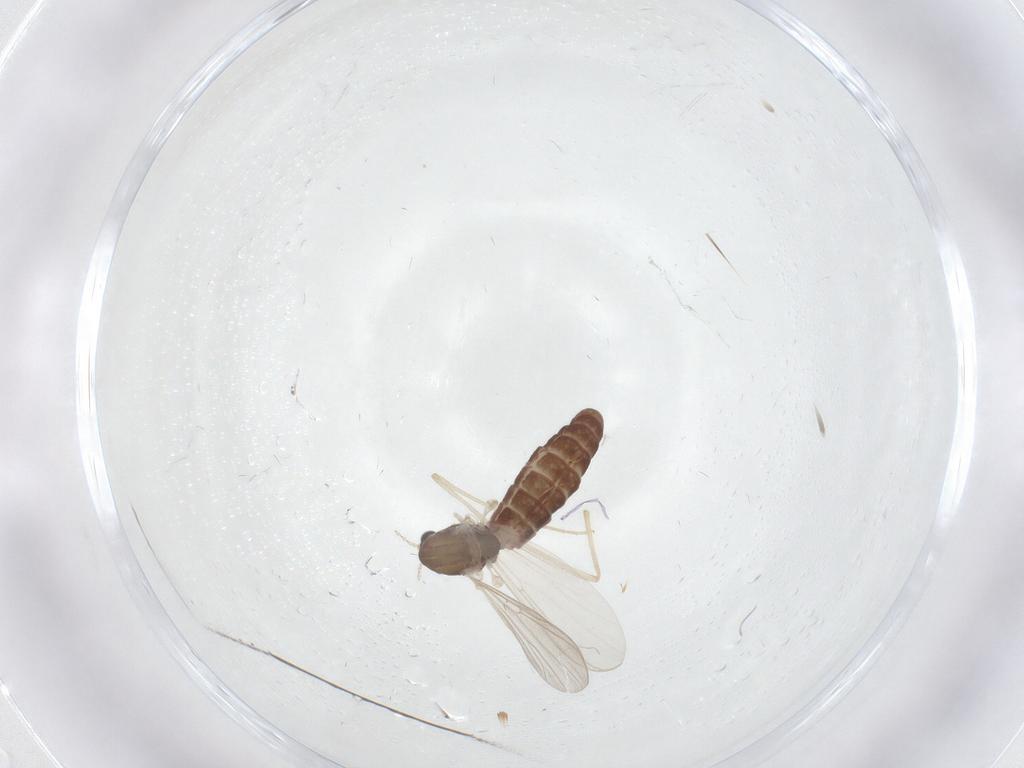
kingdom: Animalia
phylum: Arthropoda
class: Insecta
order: Diptera
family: Chironomidae
